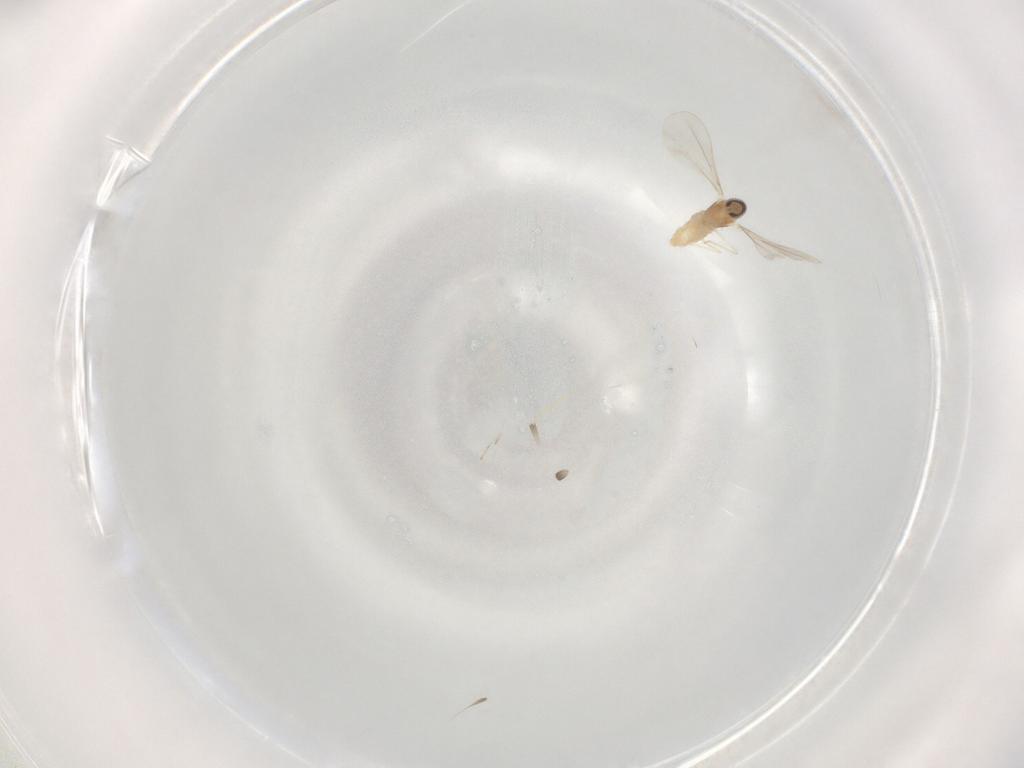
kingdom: Animalia
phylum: Arthropoda
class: Insecta
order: Diptera
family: Cecidomyiidae
